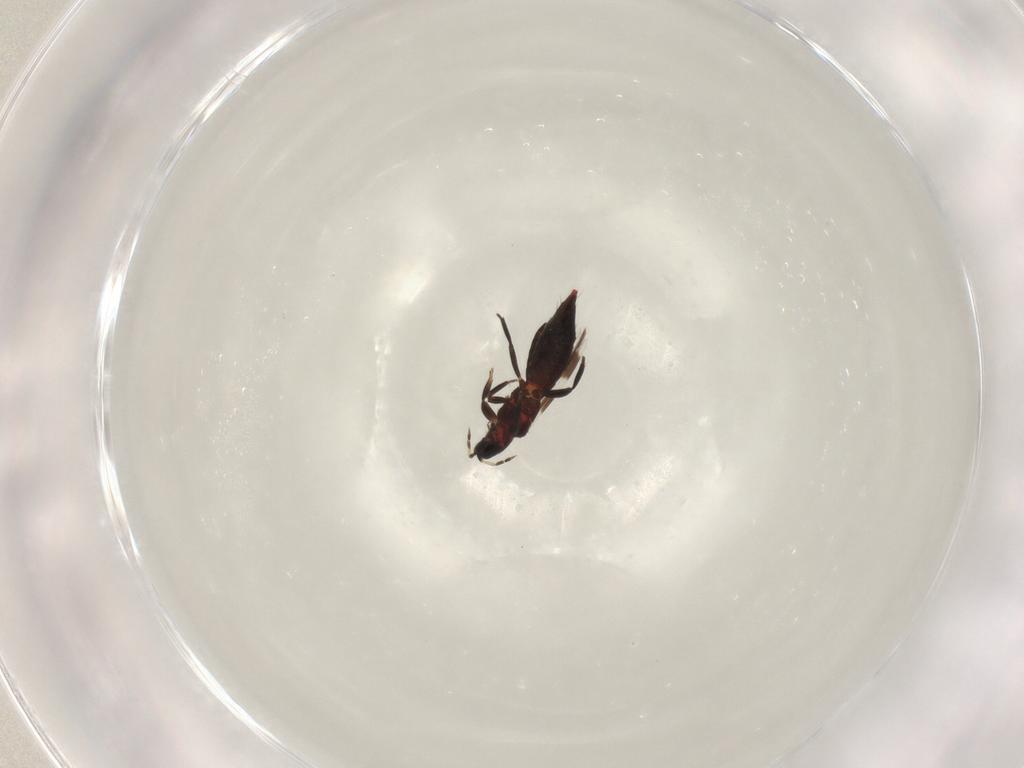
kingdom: Animalia
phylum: Arthropoda
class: Insecta
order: Thysanoptera
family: Aeolothripidae
